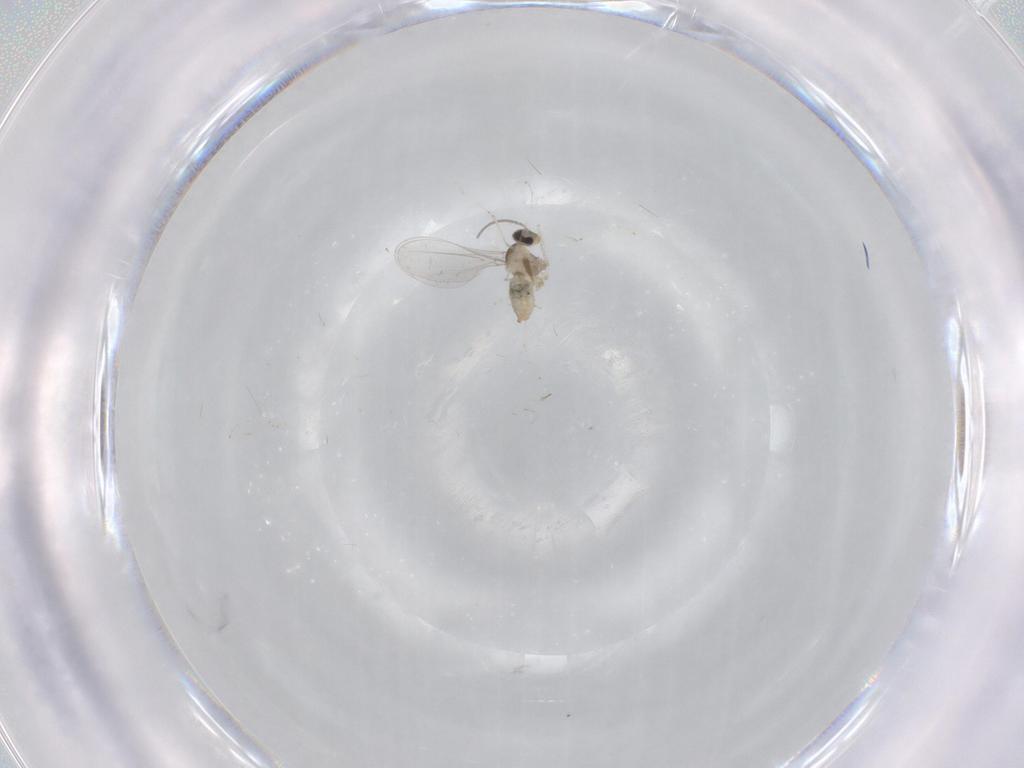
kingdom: Animalia
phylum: Arthropoda
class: Insecta
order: Diptera
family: Cecidomyiidae
